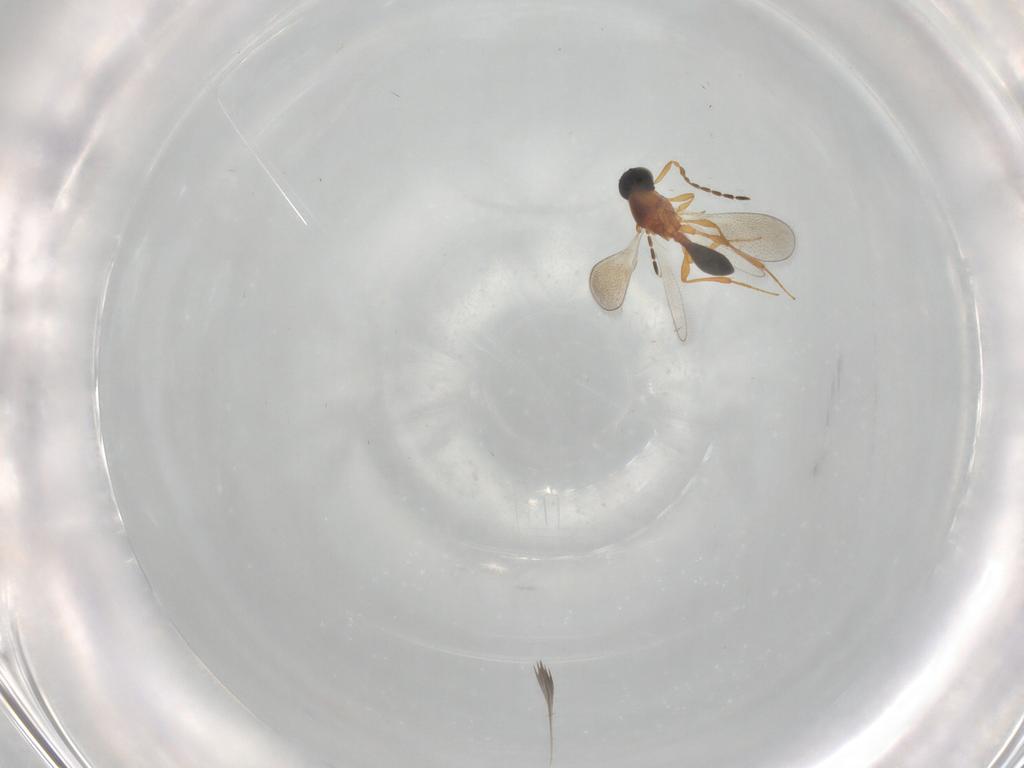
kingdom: Animalia
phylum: Arthropoda
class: Insecta
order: Hymenoptera
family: Platygastridae
